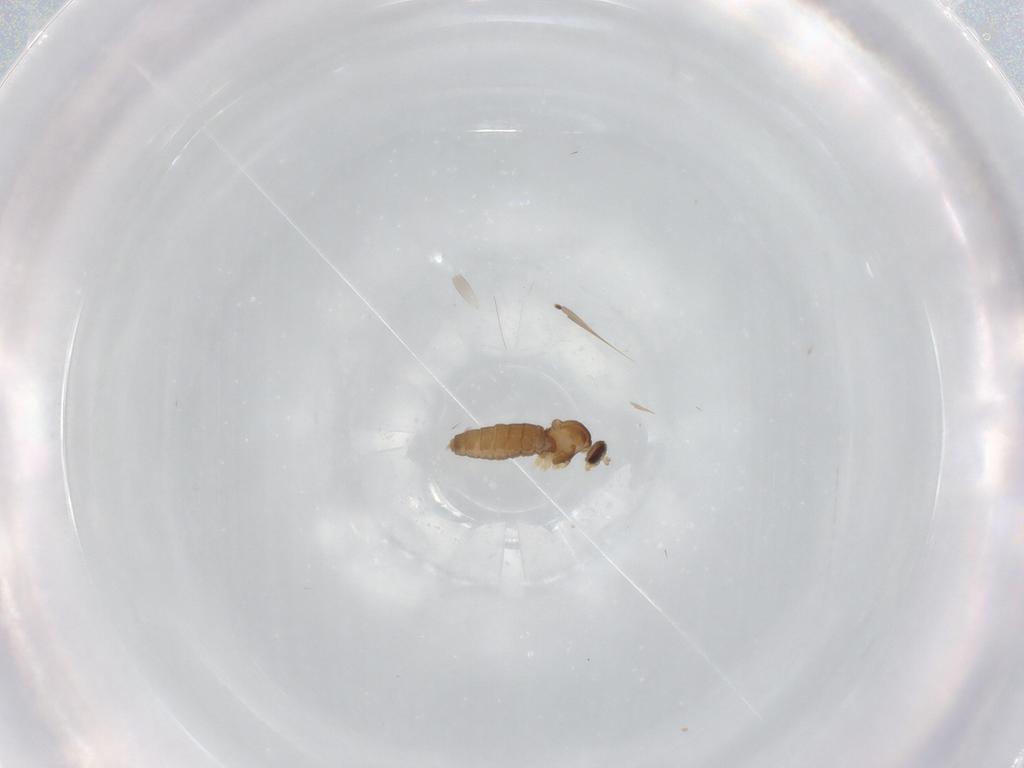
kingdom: Animalia
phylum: Arthropoda
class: Insecta
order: Diptera
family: Cecidomyiidae
